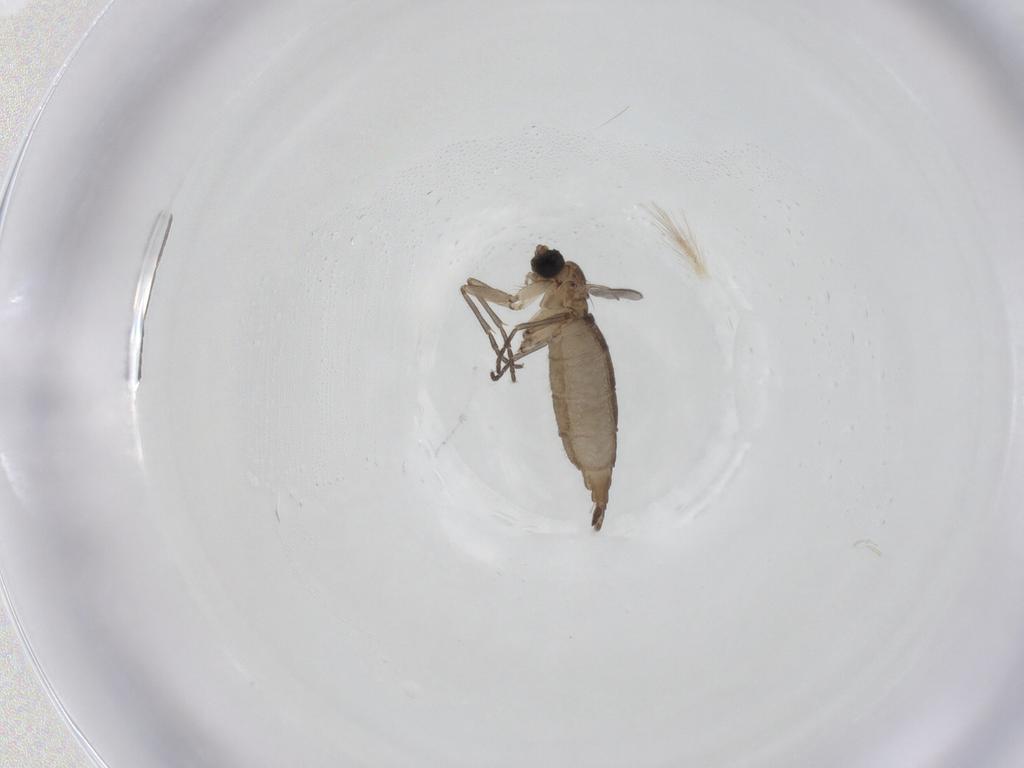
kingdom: Animalia
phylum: Arthropoda
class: Insecta
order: Diptera
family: Sciaridae
